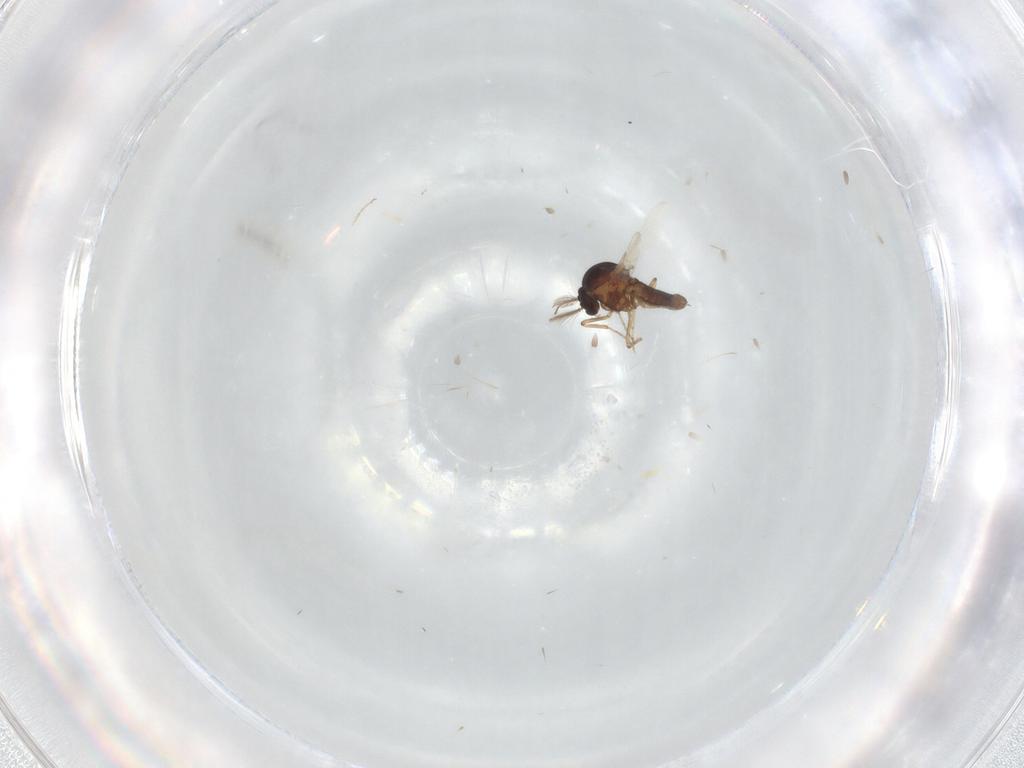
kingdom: Animalia
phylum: Arthropoda
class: Insecta
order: Diptera
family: Ceratopogonidae
